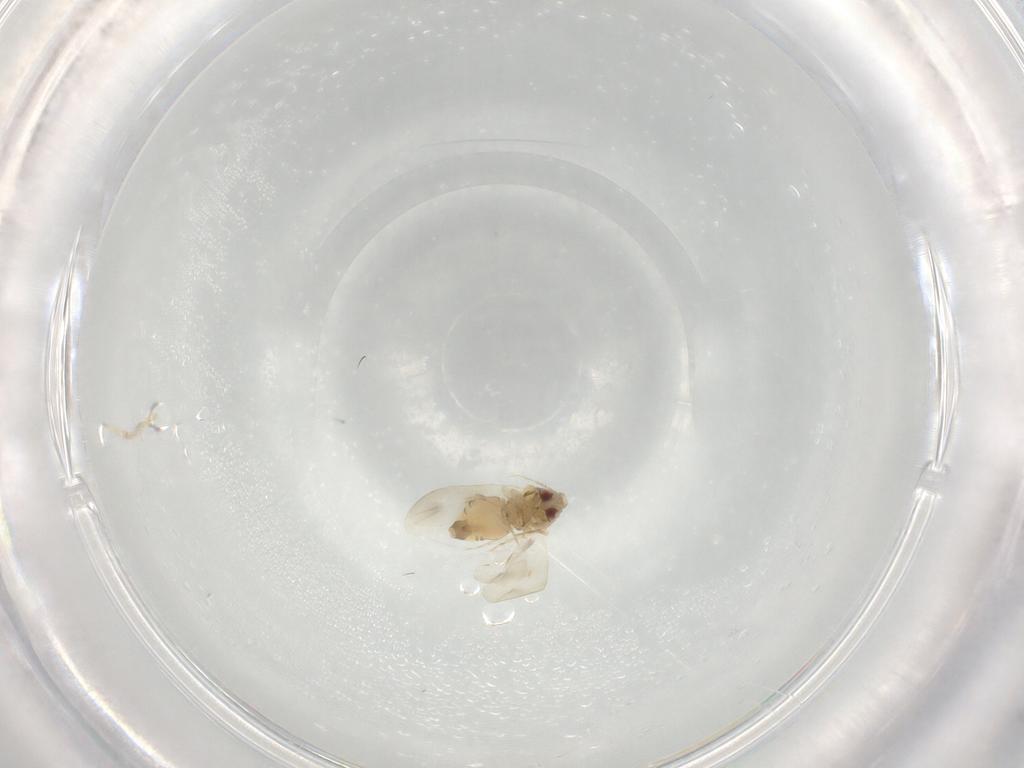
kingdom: Animalia
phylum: Arthropoda
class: Insecta
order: Hemiptera
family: Aleyrodidae
